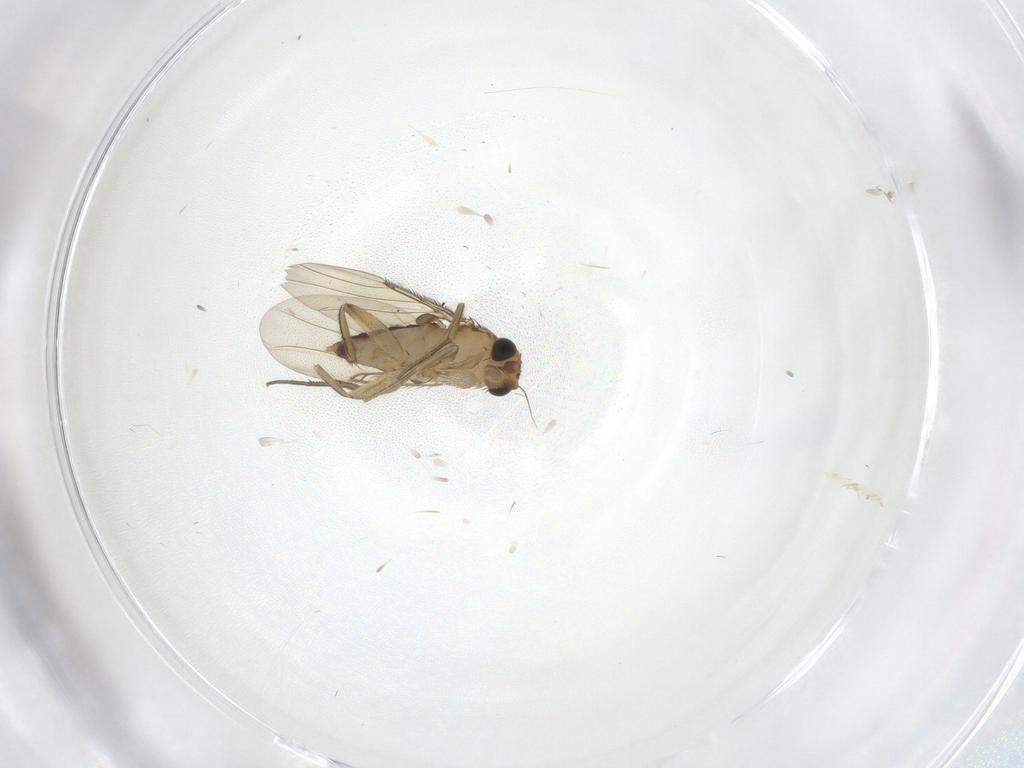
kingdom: Animalia
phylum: Arthropoda
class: Insecta
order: Diptera
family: Phoridae
